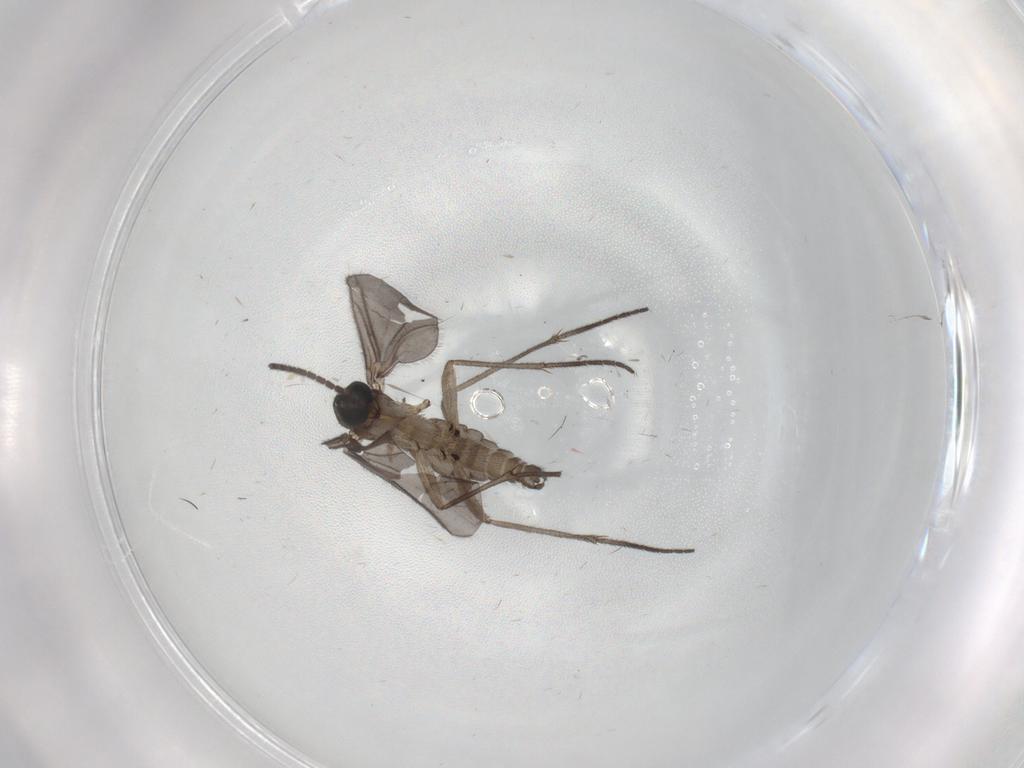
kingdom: Animalia
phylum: Arthropoda
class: Insecta
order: Diptera
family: Sciaridae
